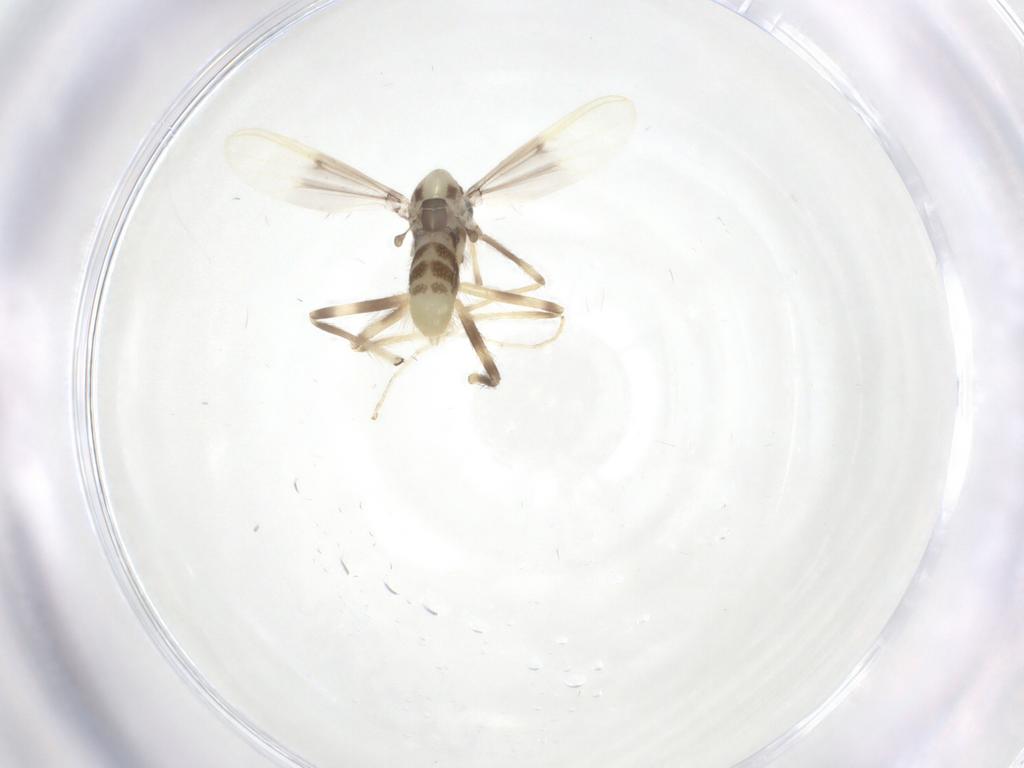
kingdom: Animalia
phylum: Arthropoda
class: Insecta
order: Diptera
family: Chironomidae
